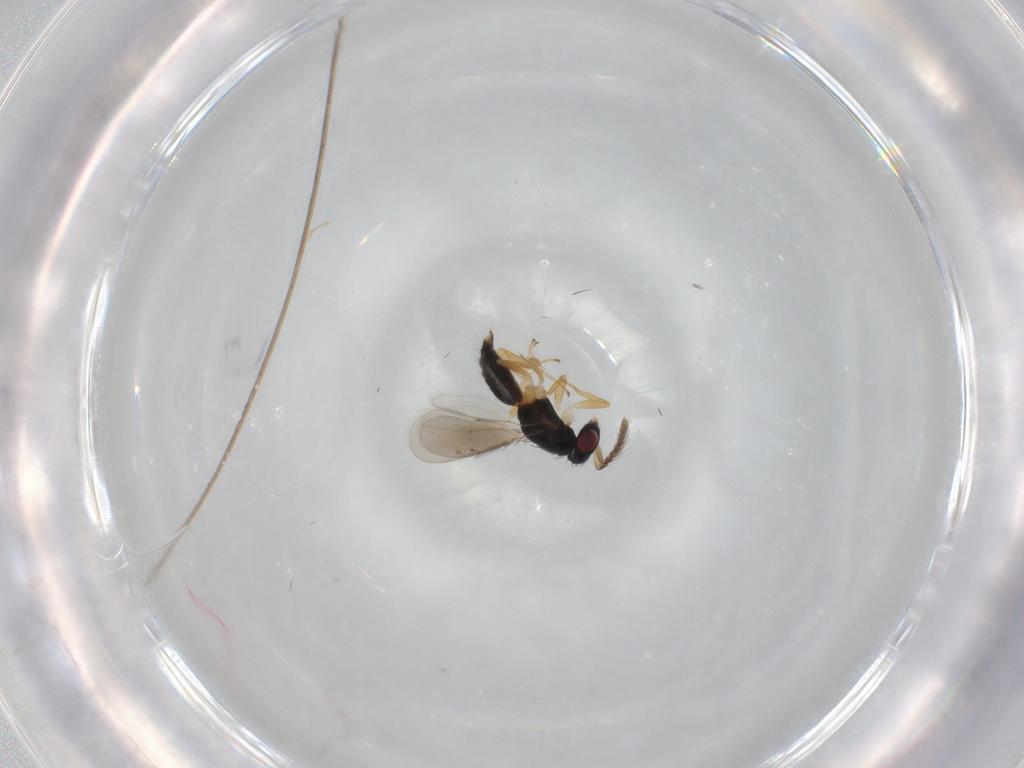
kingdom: Animalia
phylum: Arthropoda
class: Insecta
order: Hymenoptera
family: Eulophidae
